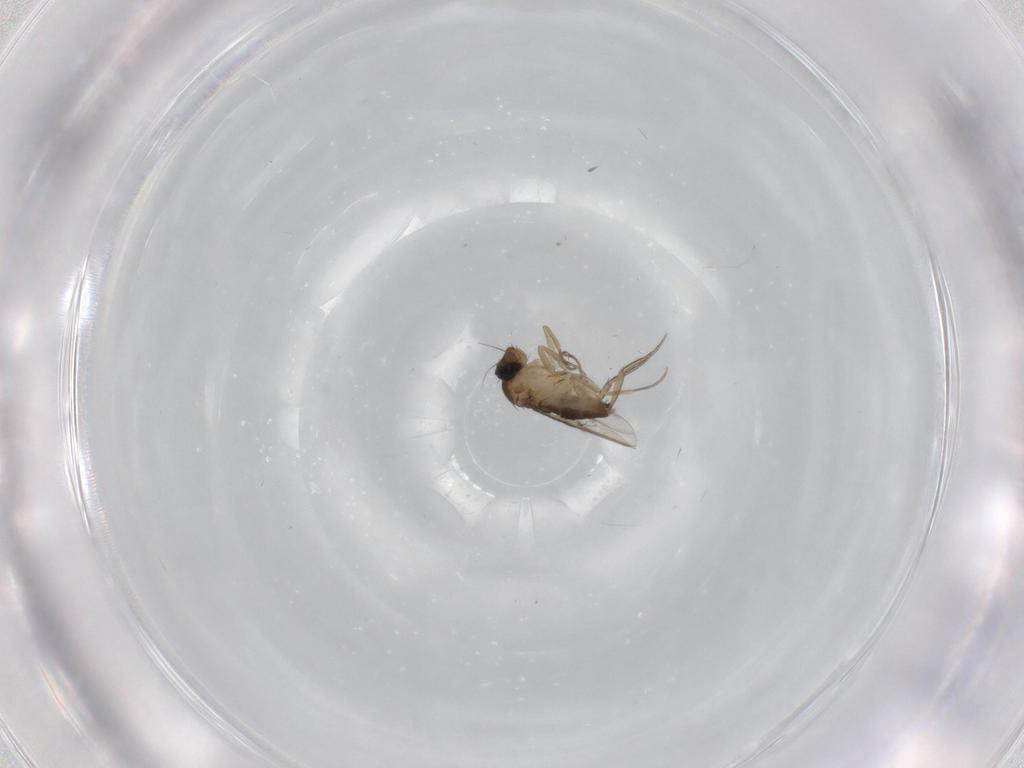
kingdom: Animalia
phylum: Arthropoda
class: Insecta
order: Diptera
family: Phoridae
